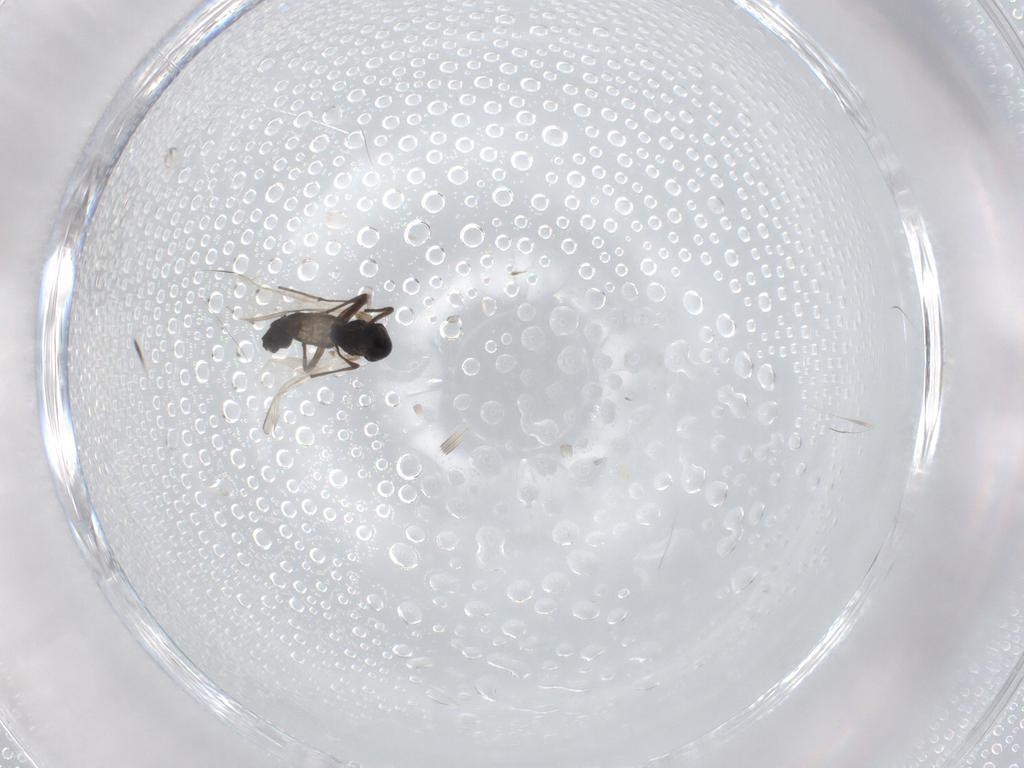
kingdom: Animalia
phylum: Arthropoda
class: Insecta
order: Diptera
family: Chironomidae
